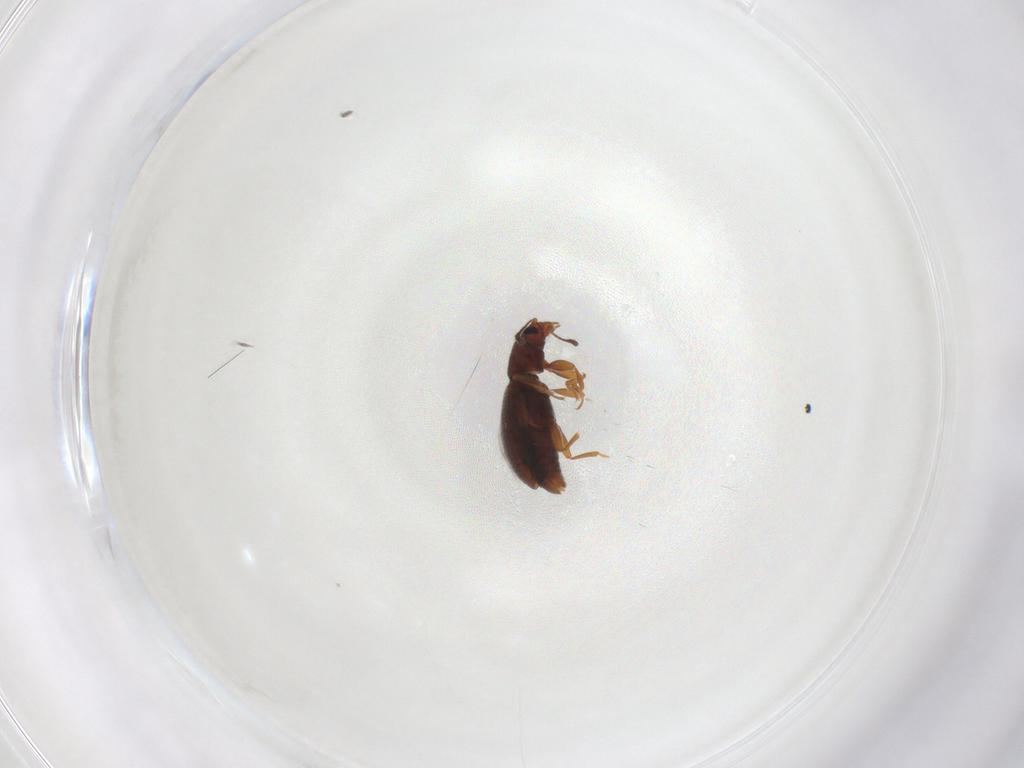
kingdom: Animalia
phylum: Arthropoda
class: Insecta
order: Coleoptera
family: Latridiidae
